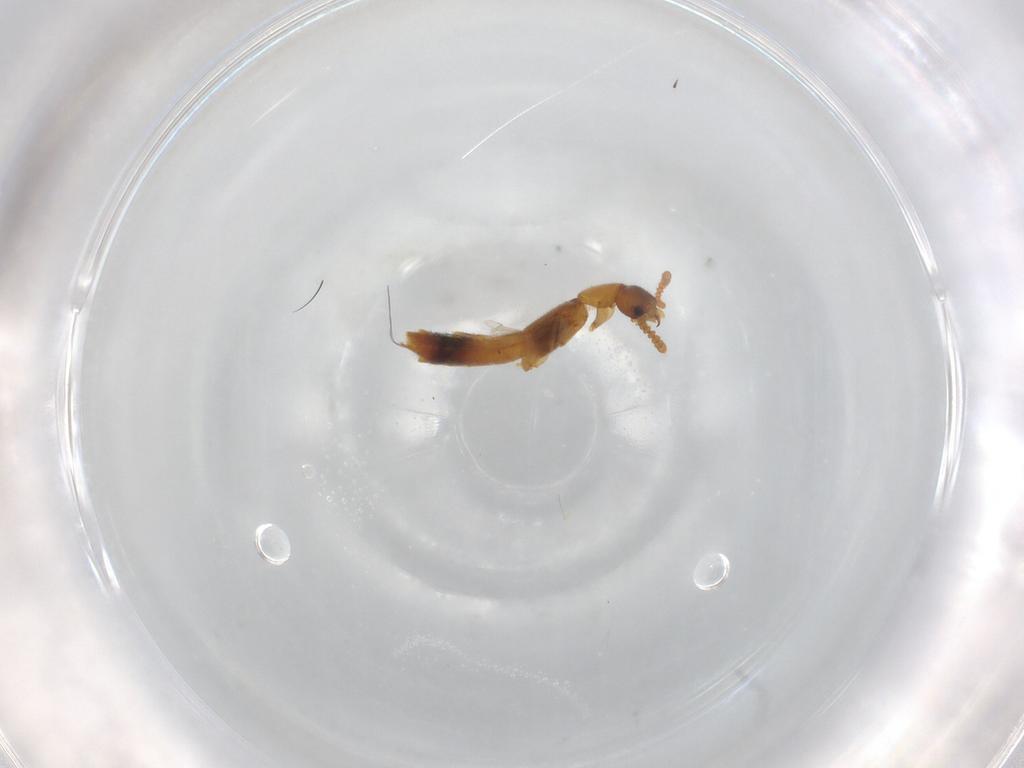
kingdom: Animalia
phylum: Arthropoda
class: Insecta
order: Coleoptera
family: Staphylinidae
